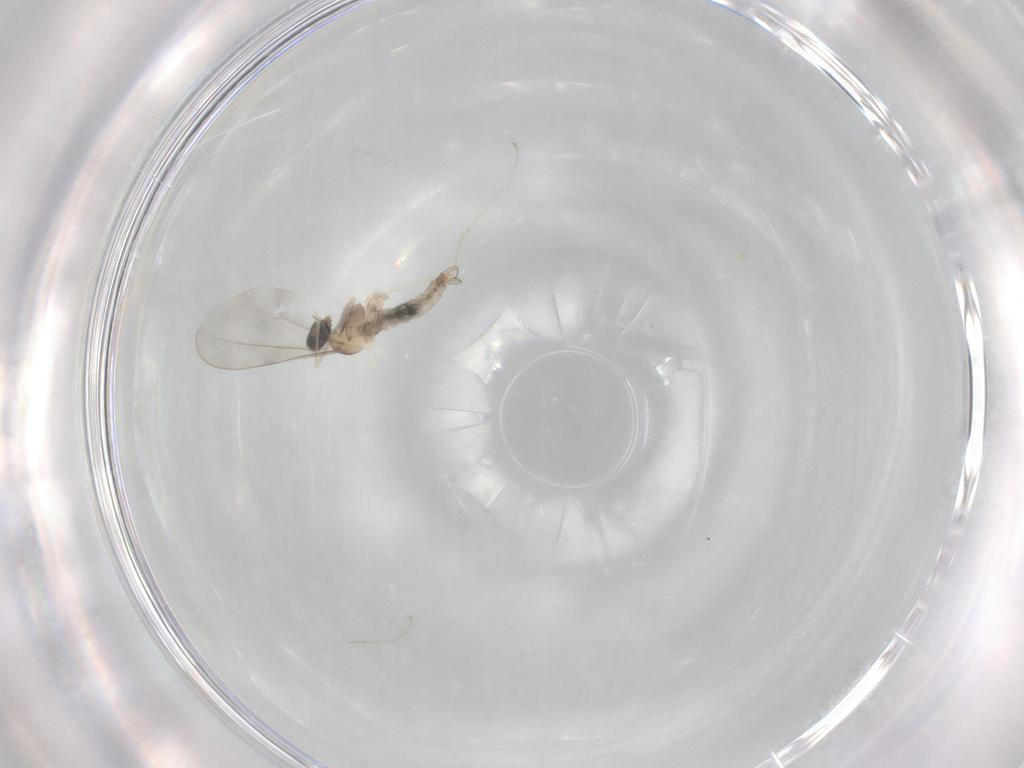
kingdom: Animalia
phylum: Arthropoda
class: Insecta
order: Diptera
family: Cecidomyiidae
